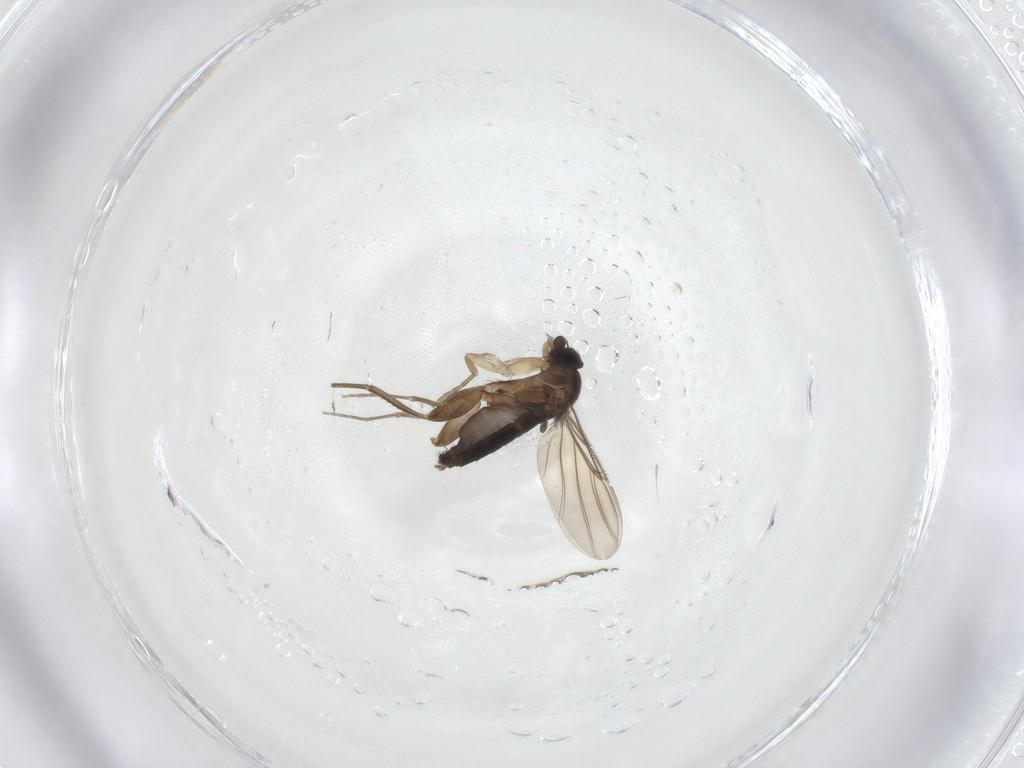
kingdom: Animalia
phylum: Arthropoda
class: Insecta
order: Diptera
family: Phoridae
